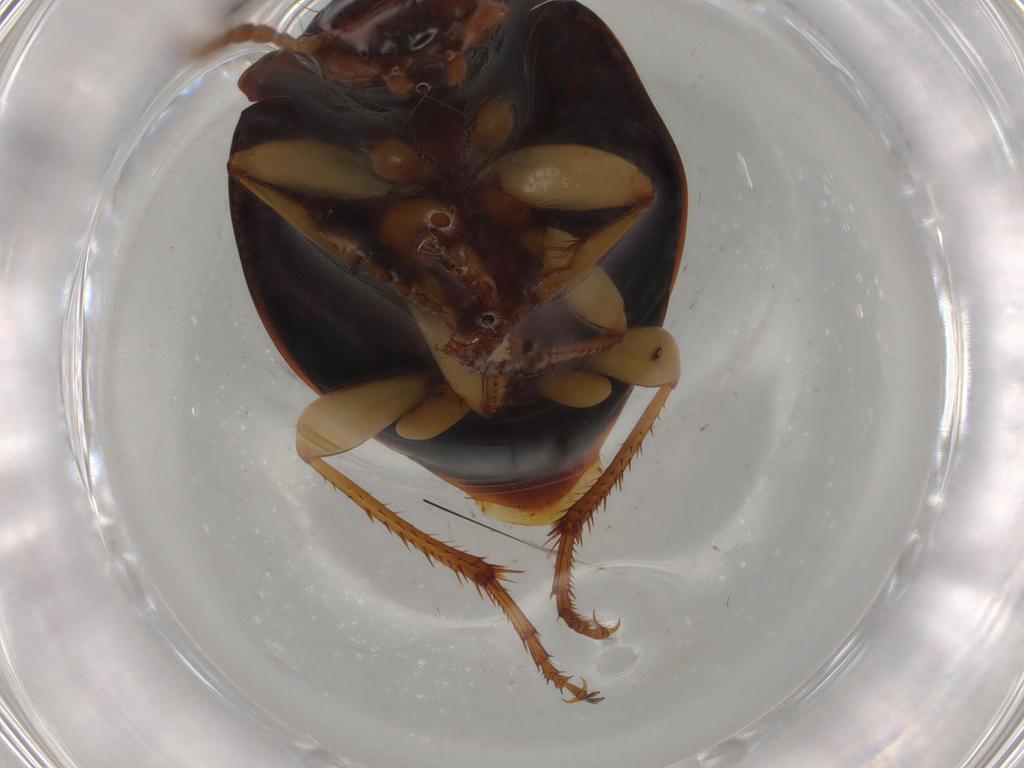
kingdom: Animalia
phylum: Arthropoda
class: Insecta
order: Coleoptera
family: Carabidae
